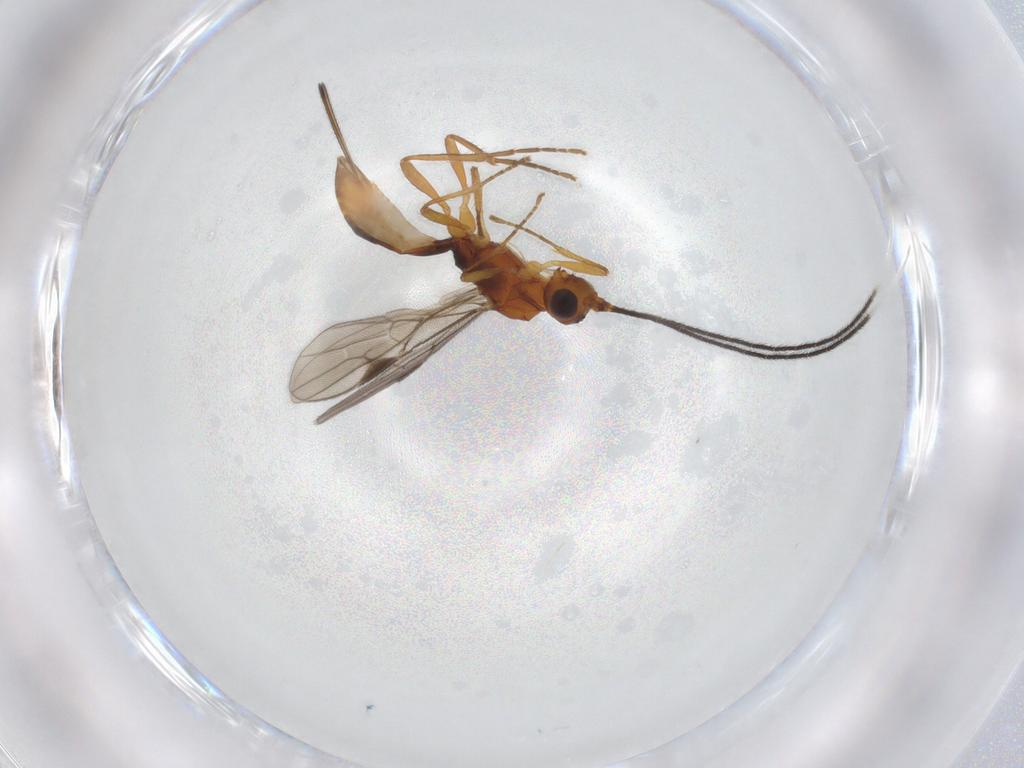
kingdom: Animalia
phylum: Arthropoda
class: Insecta
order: Hymenoptera
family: Braconidae
